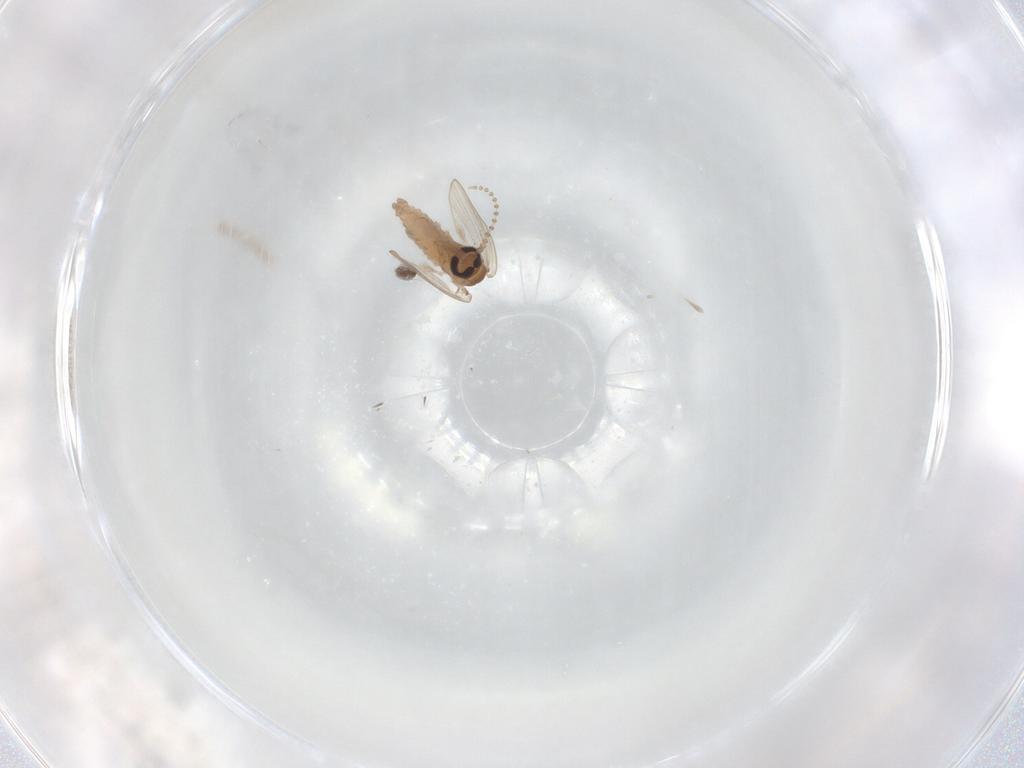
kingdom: Animalia
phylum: Arthropoda
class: Insecta
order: Diptera
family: Psychodidae
